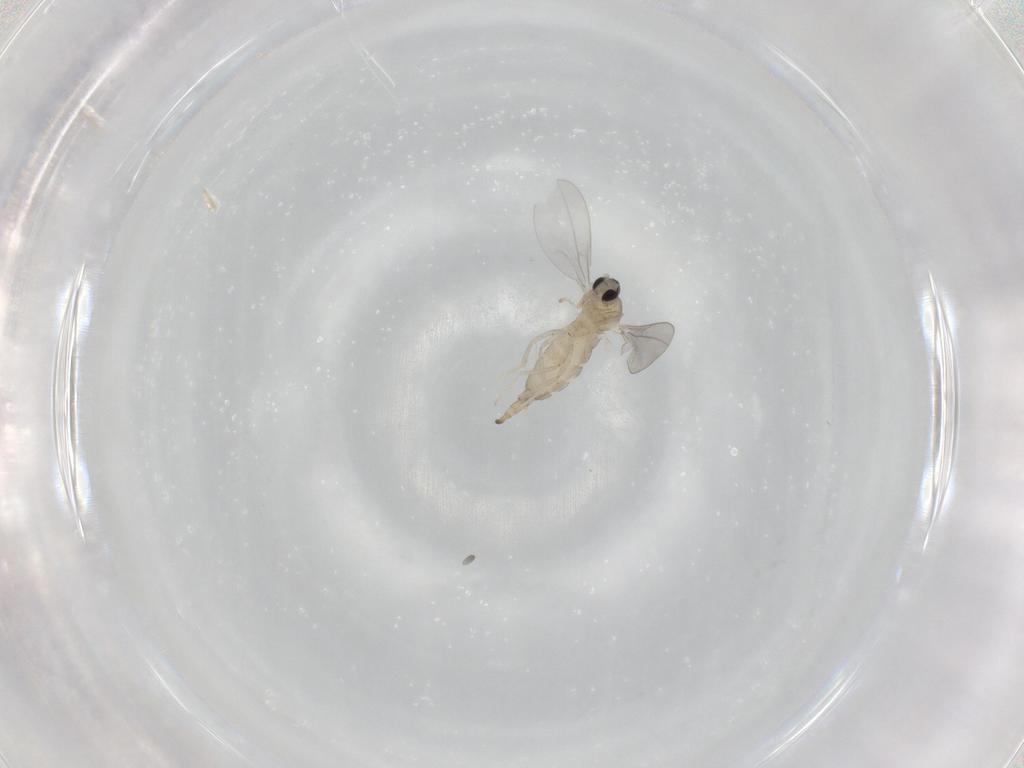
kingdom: Animalia
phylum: Arthropoda
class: Insecta
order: Diptera
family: Cecidomyiidae
